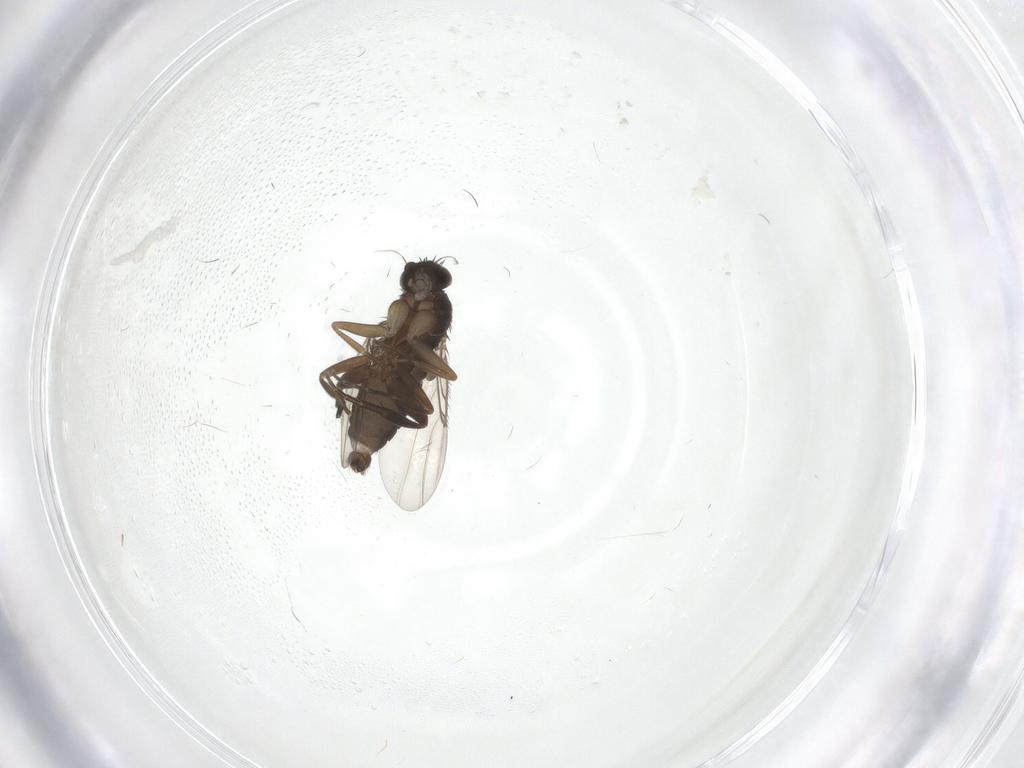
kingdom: Animalia
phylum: Arthropoda
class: Insecta
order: Diptera
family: Phoridae
